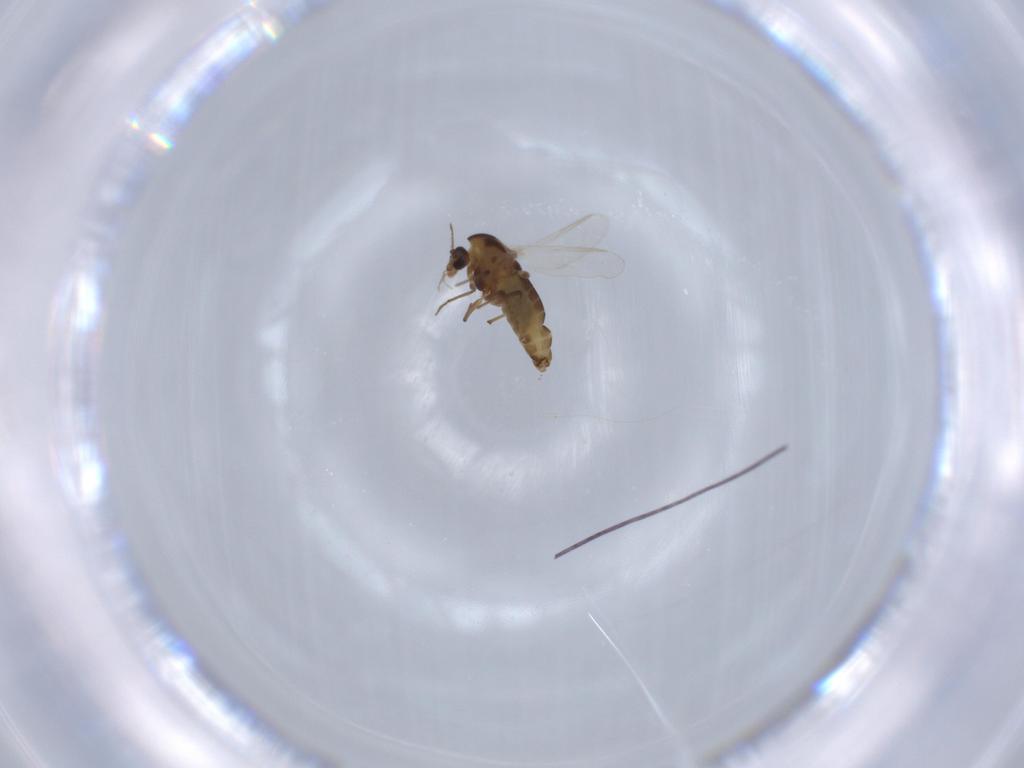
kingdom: Animalia
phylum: Arthropoda
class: Insecta
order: Diptera
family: Chironomidae
